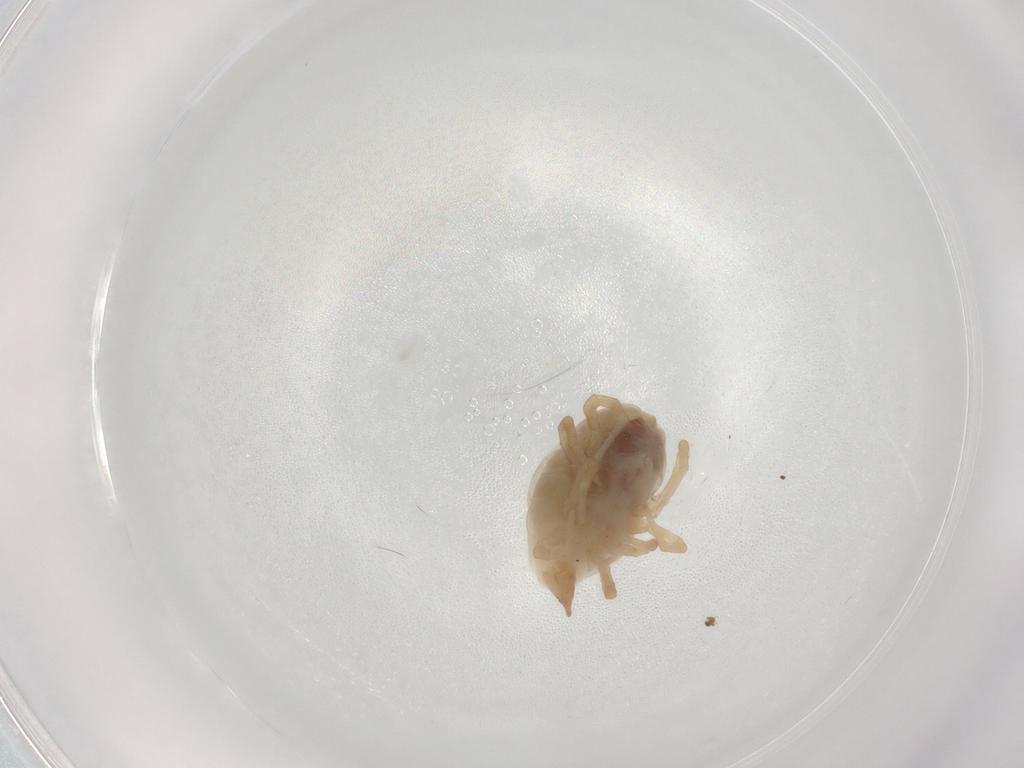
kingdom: Animalia
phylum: Arthropoda
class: Arachnida
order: Trombidiformes
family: Bdellidae
